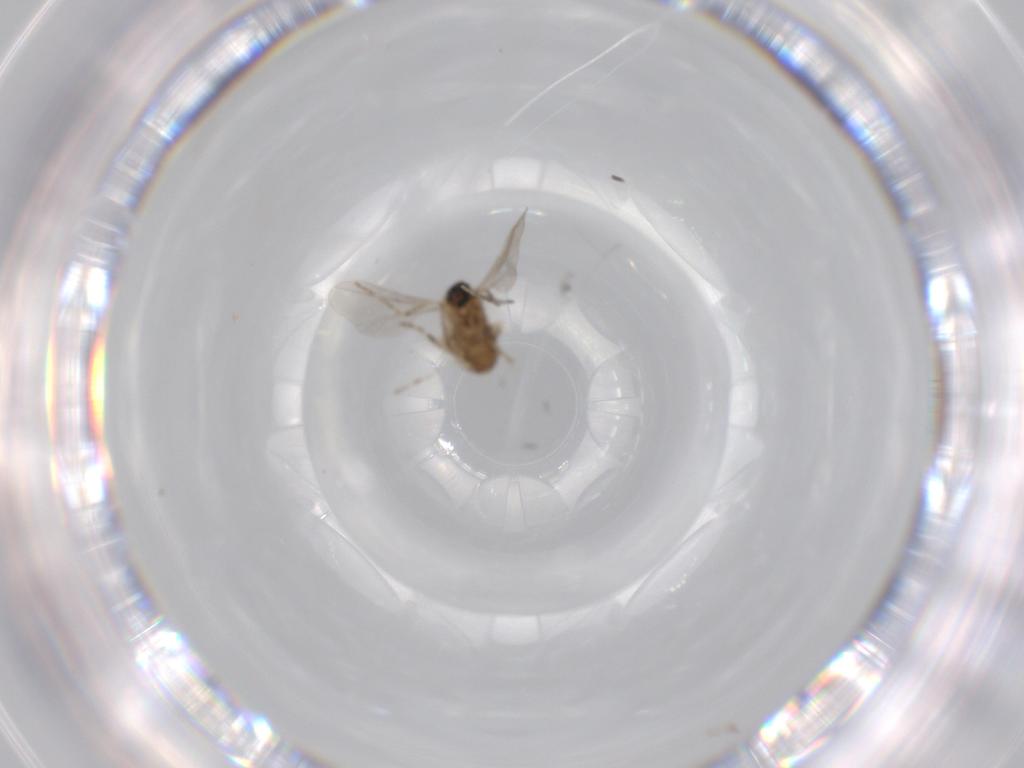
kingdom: Animalia
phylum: Arthropoda
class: Insecta
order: Diptera
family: Cecidomyiidae
